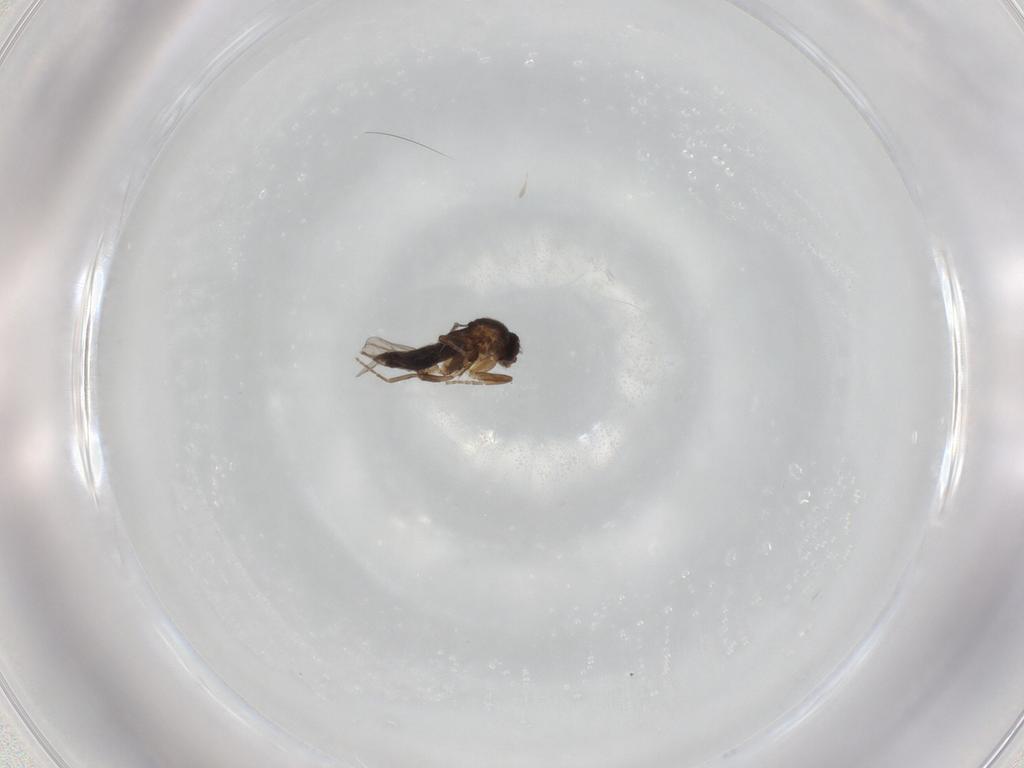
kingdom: Animalia
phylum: Arthropoda
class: Insecta
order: Diptera
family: Phoridae
